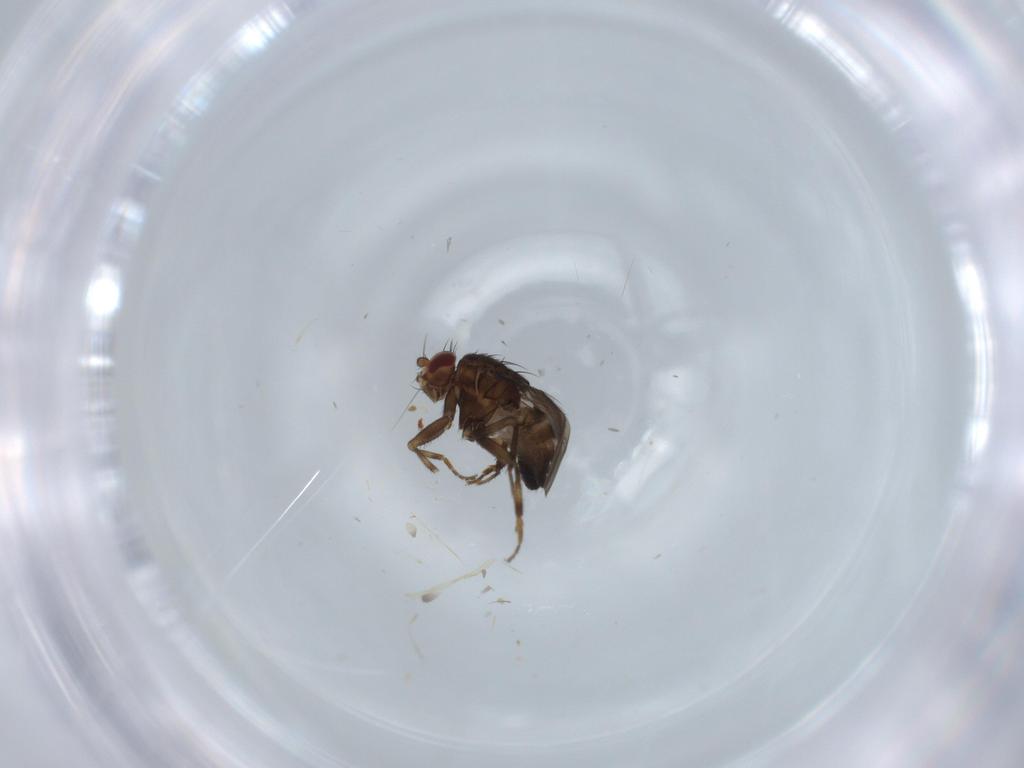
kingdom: Animalia
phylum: Arthropoda
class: Insecta
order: Diptera
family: Sphaeroceridae
